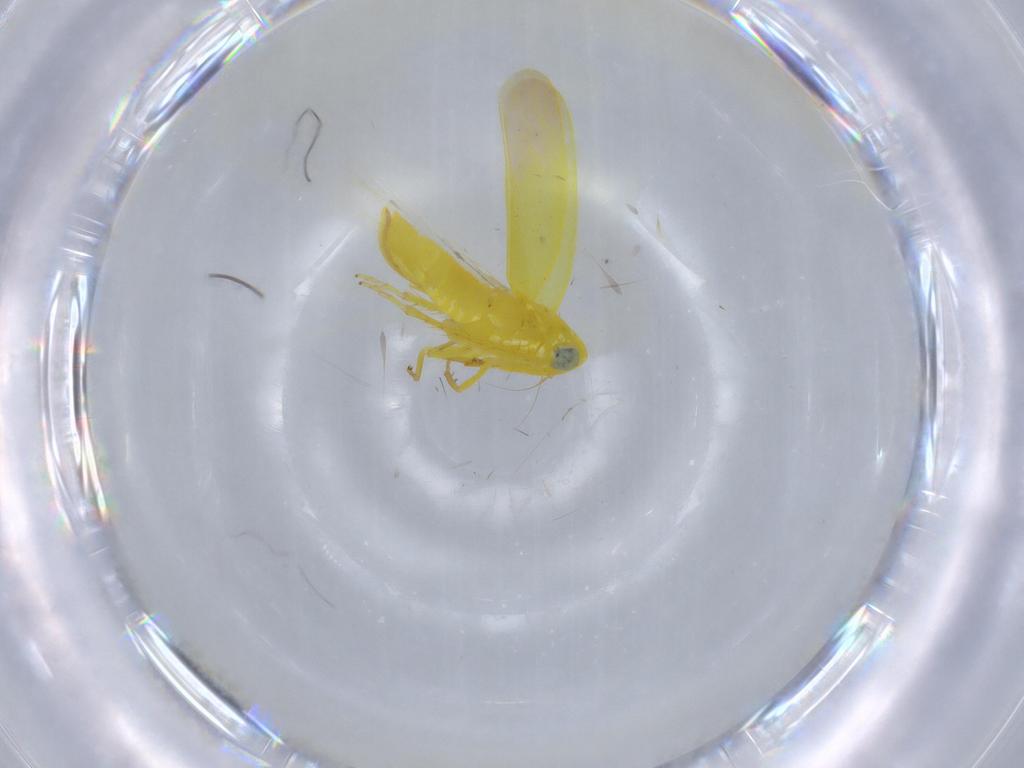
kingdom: Animalia
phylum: Arthropoda
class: Insecta
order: Hemiptera
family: Cicadellidae
